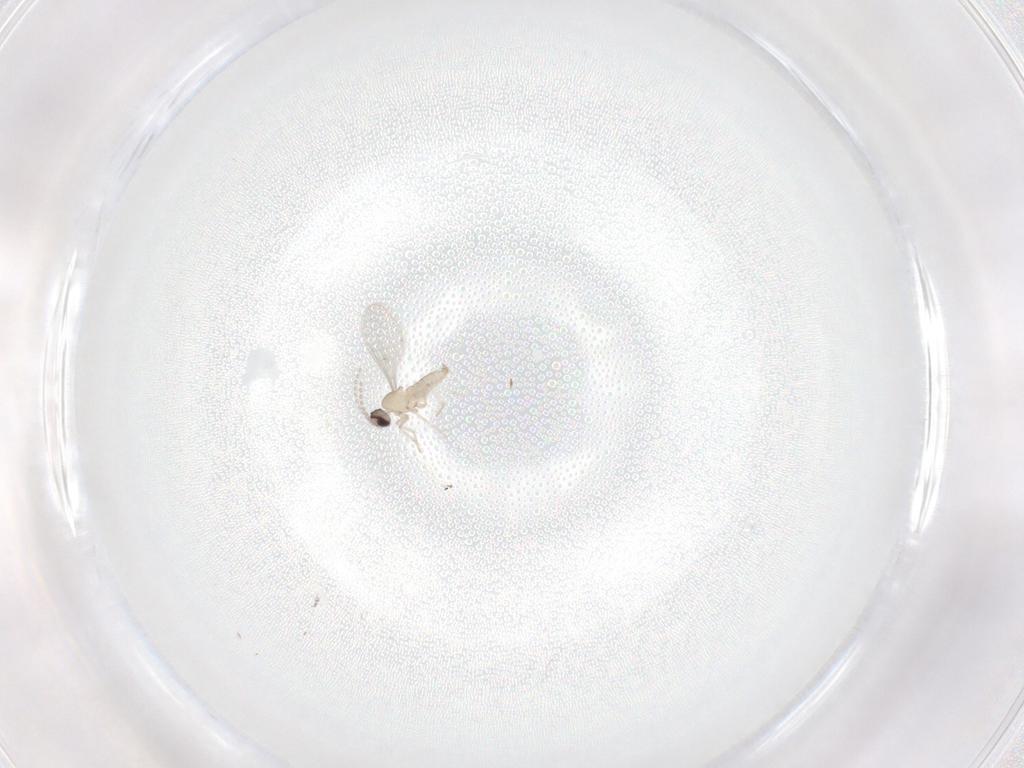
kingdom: Animalia
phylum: Arthropoda
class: Insecta
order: Diptera
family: Ceratopogonidae
